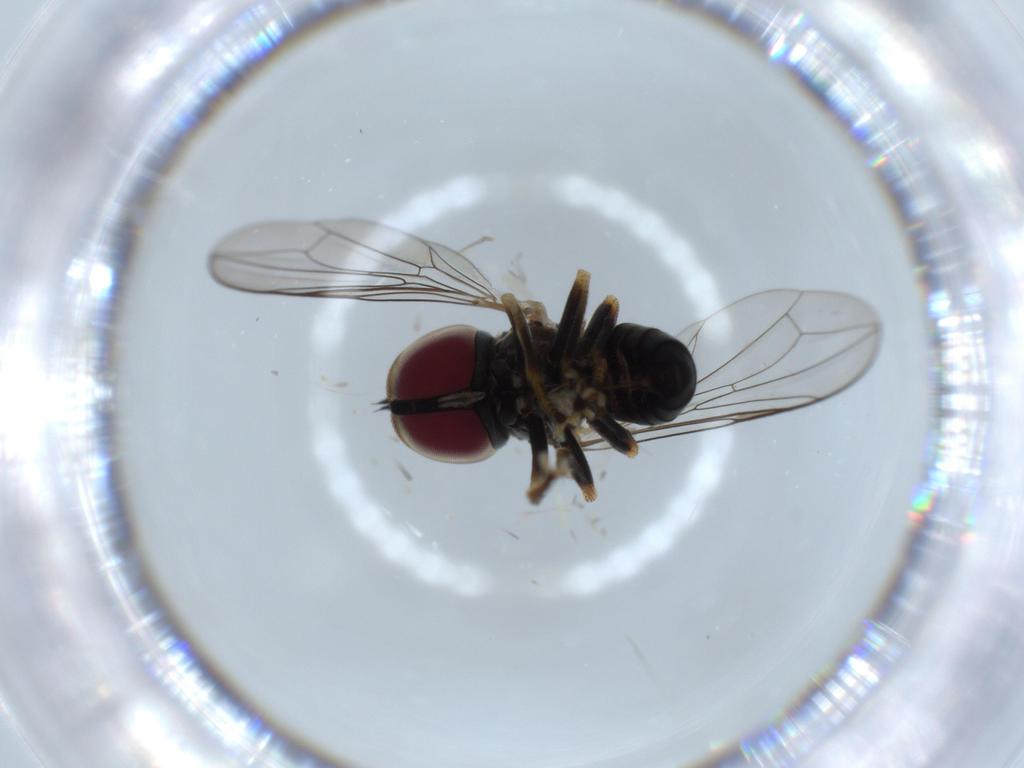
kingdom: Animalia
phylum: Arthropoda
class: Insecta
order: Diptera
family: Pipunculidae
